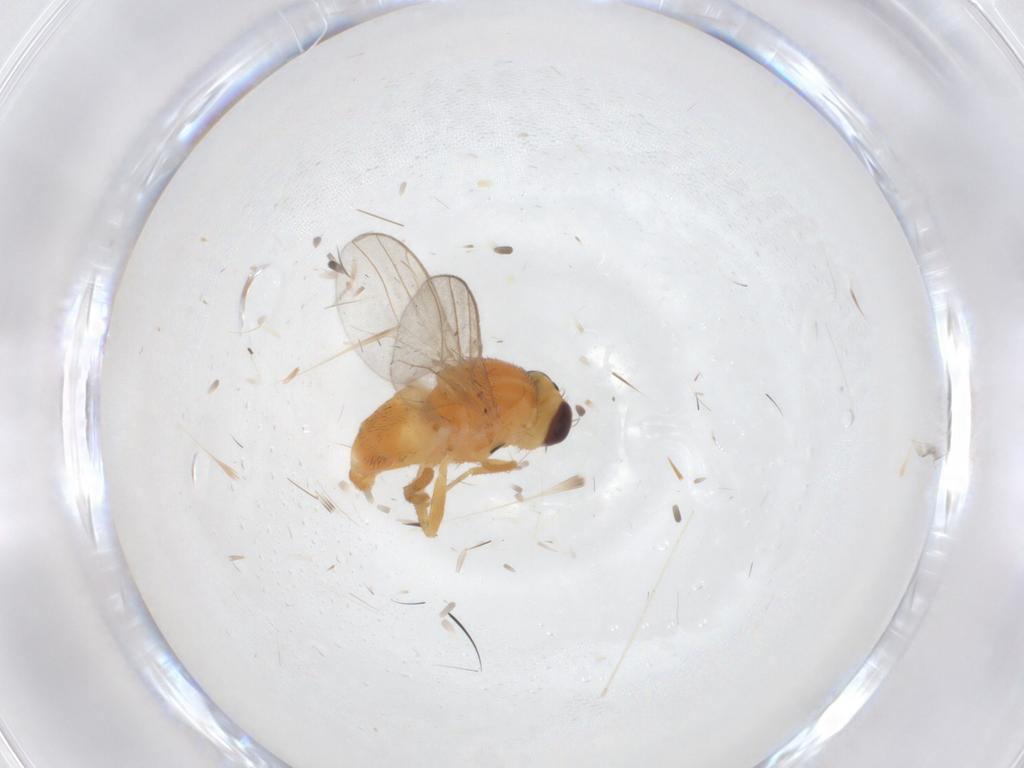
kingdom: Animalia
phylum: Arthropoda
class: Insecta
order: Diptera
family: Chloropidae
